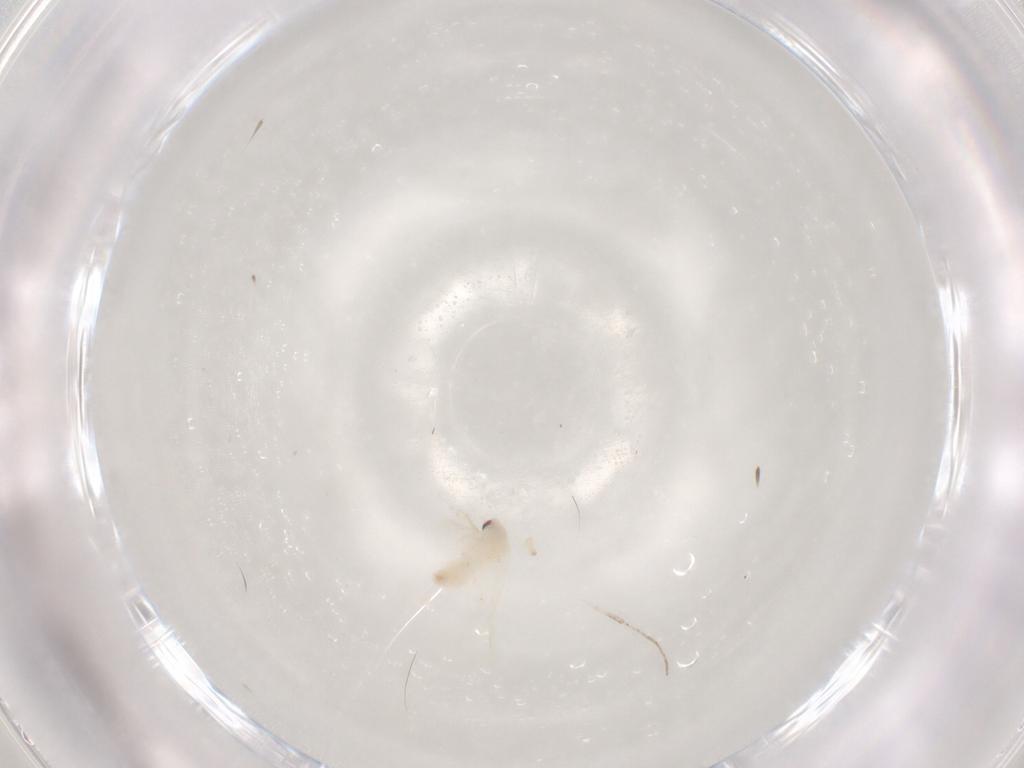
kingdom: Animalia
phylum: Arthropoda
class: Insecta
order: Hemiptera
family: Aleyrodidae
